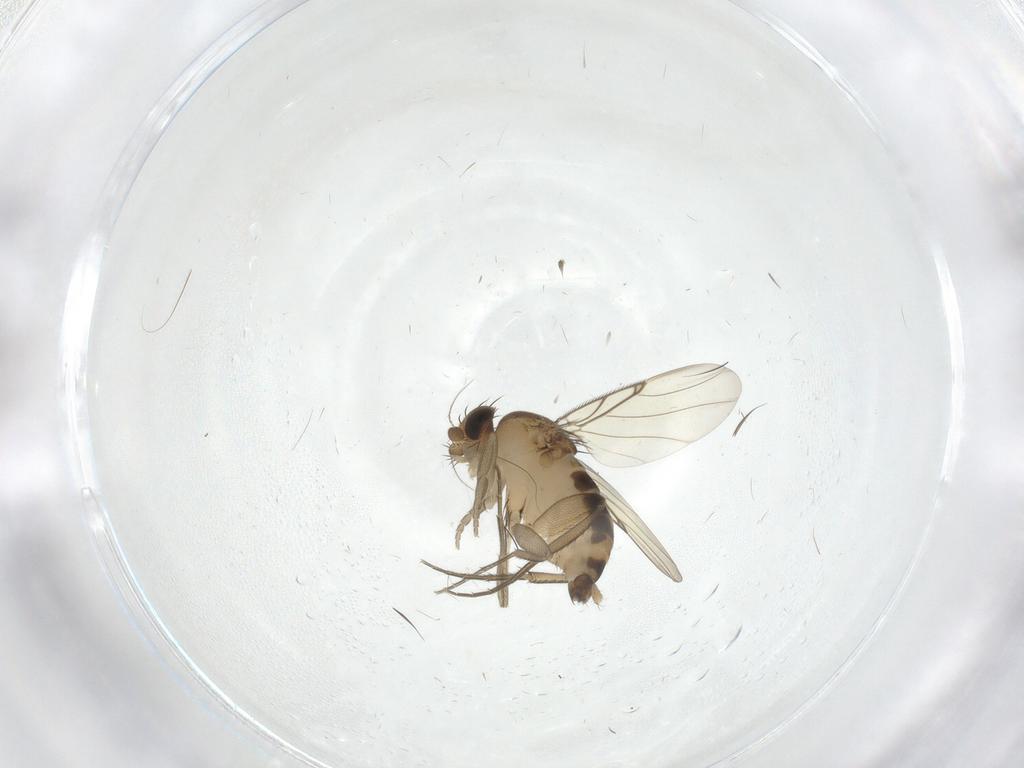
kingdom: Animalia
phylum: Arthropoda
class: Insecta
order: Diptera
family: Phoridae
